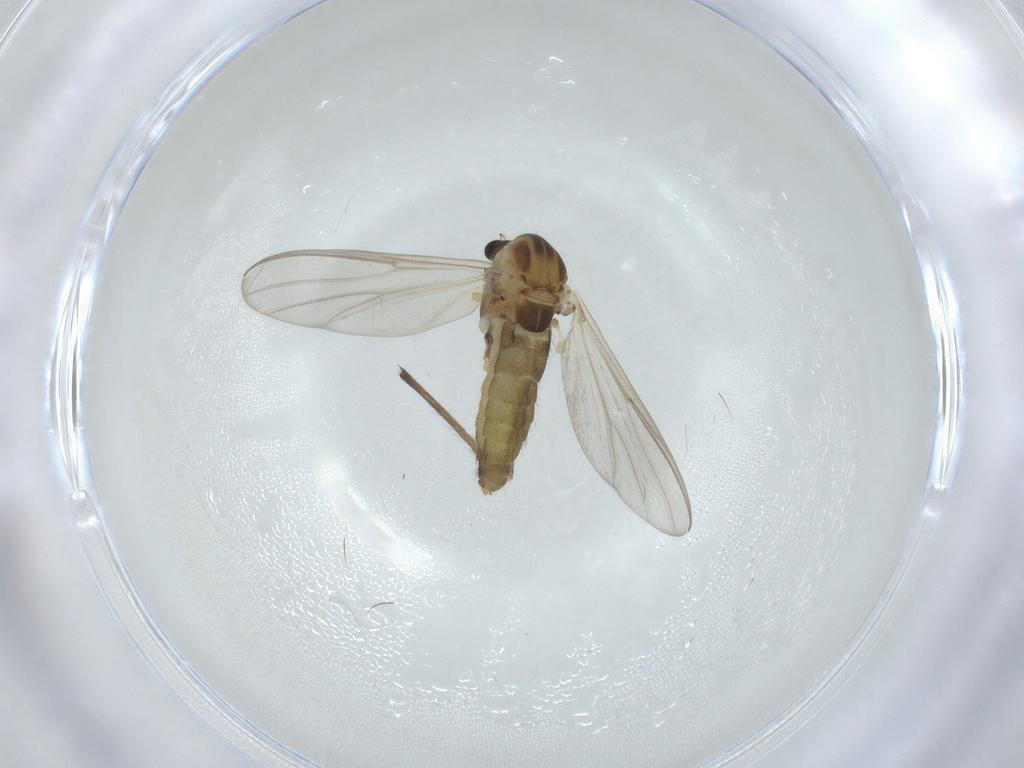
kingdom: Animalia
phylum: Arthropoda
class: Insecta
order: Diptera
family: Chironomidae
